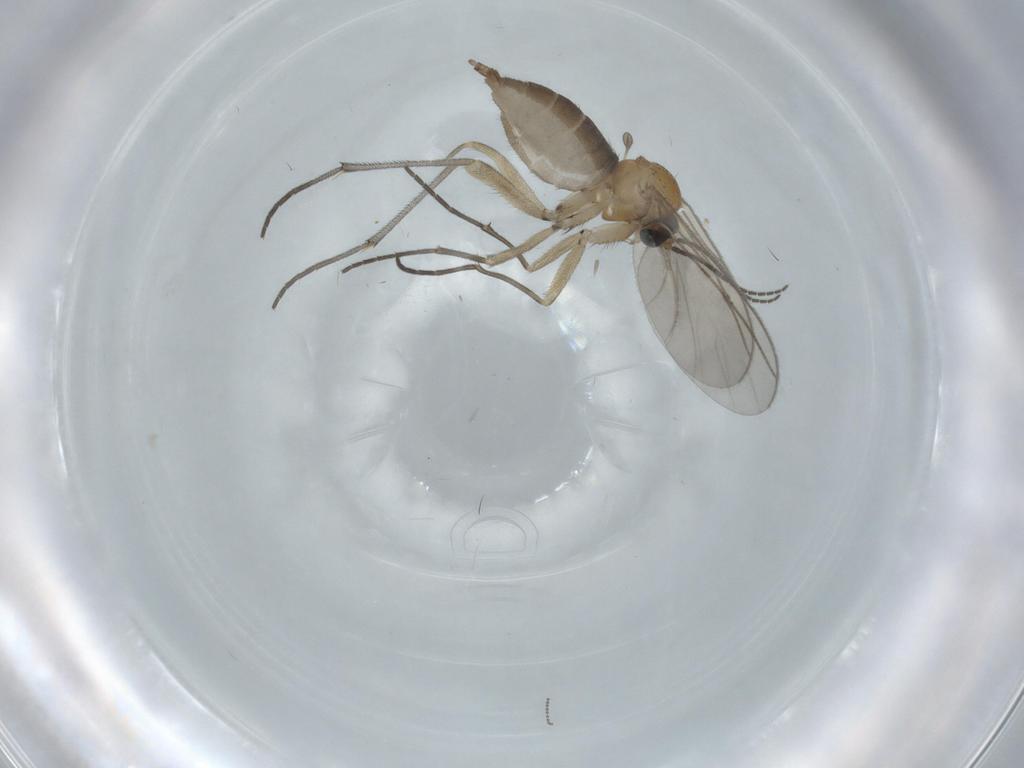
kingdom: Animalia
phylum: Arthropoda
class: Insecta
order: Diptera
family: Sciaridae
